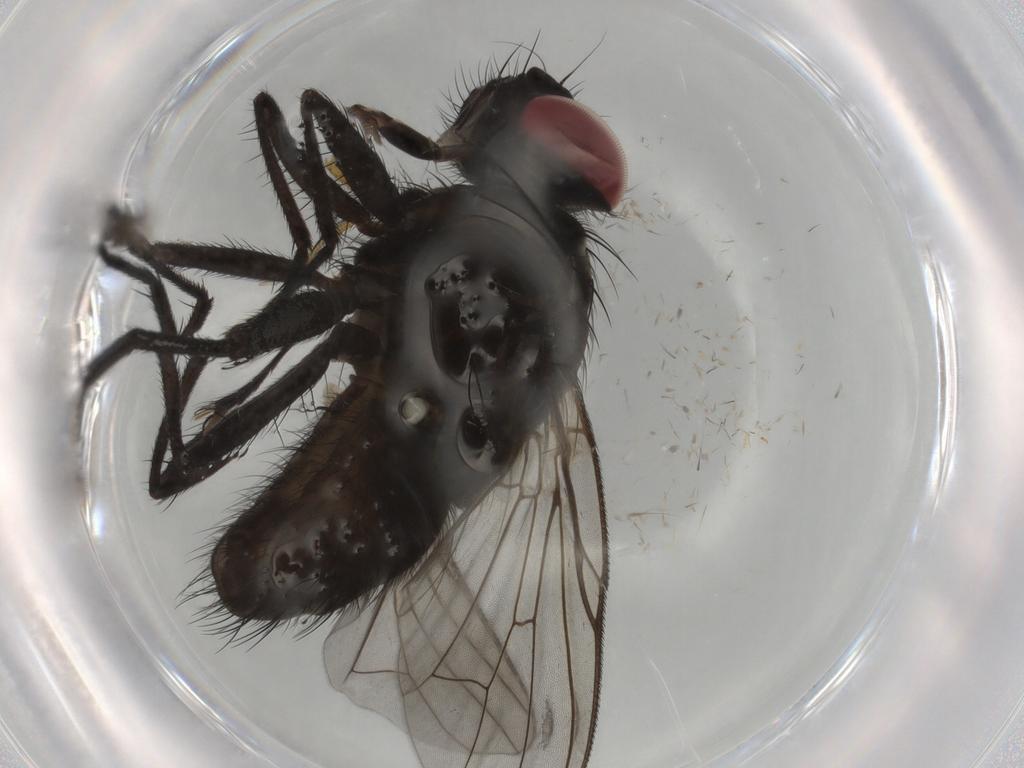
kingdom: Animalia
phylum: Arthropoda
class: Insecta
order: Diptera
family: Muscidae
